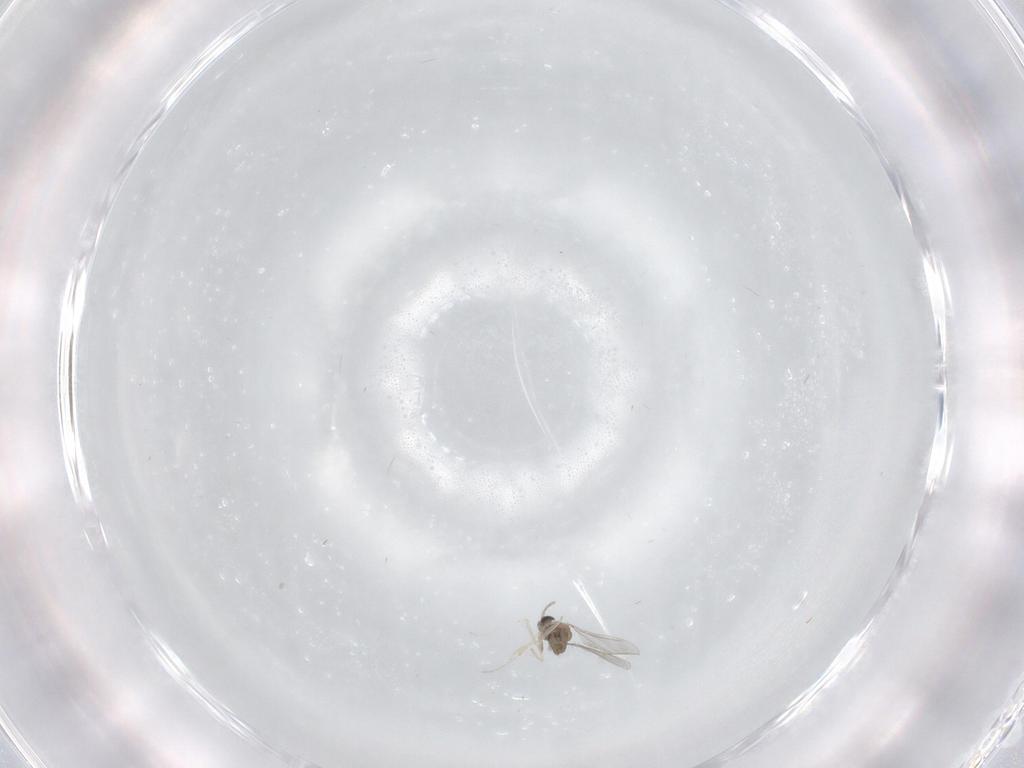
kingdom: Animalia
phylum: Arthropoda
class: Insecta
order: Diptera
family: Cecidomyiidae
